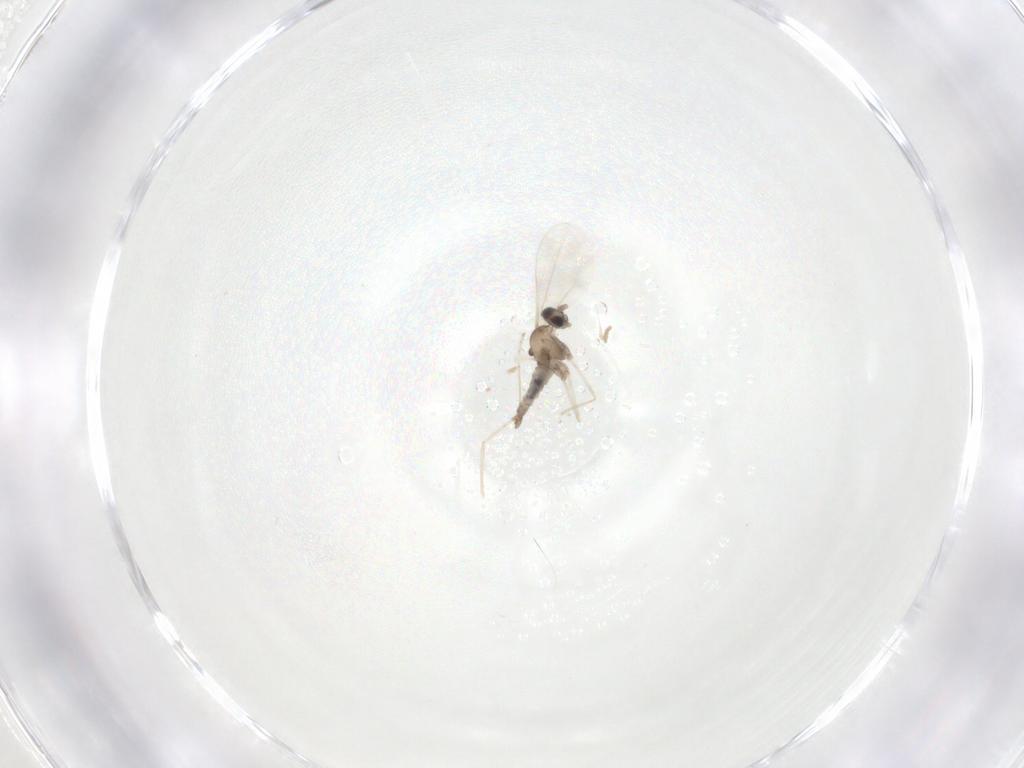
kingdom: Animalia
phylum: Arthropoda
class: Insecta
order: Diptera
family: Cecidomyiidae
